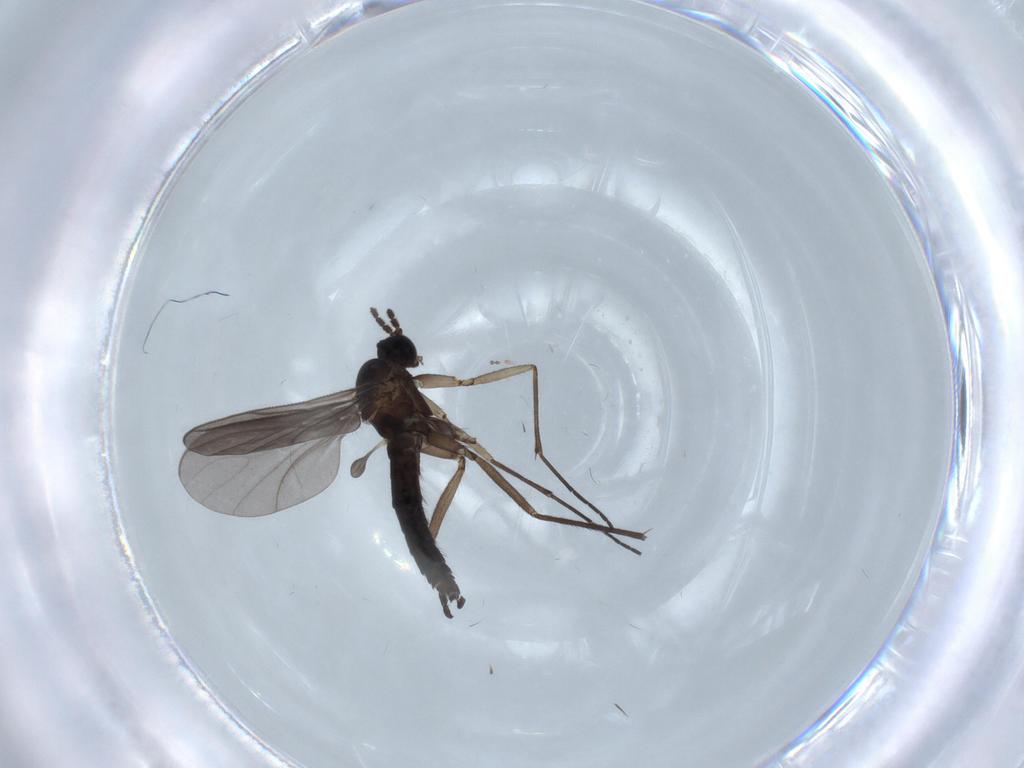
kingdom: Animalia
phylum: Arthropoda
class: Insecta
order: Diptera
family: Sciaridae
